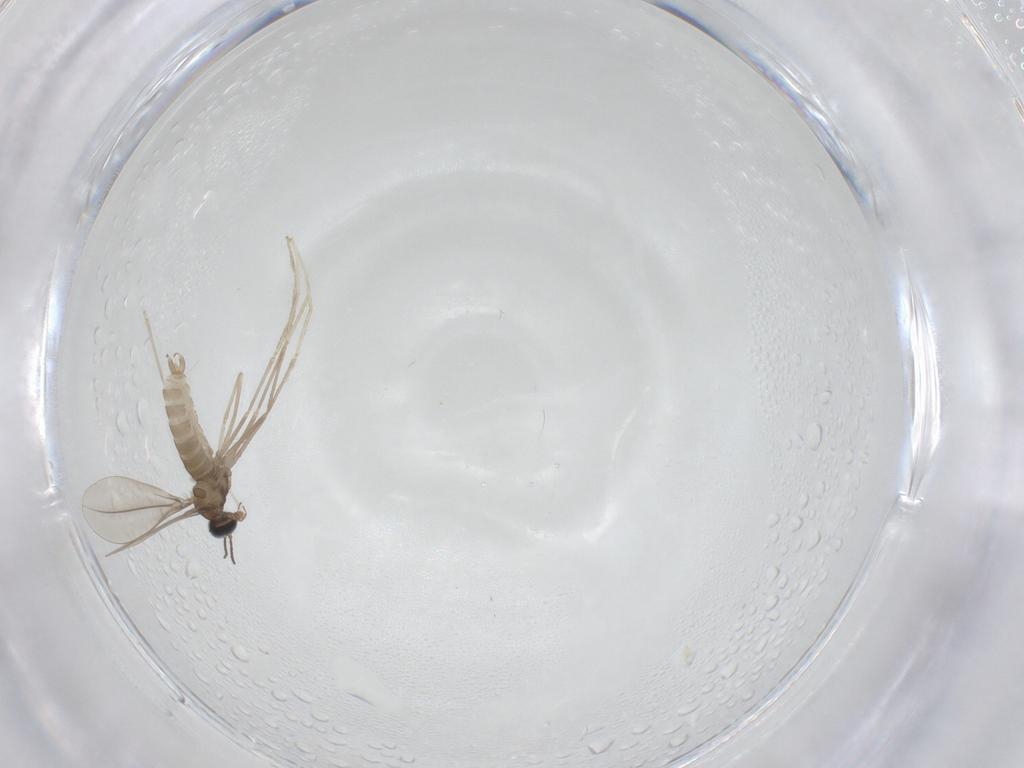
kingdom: Animalia
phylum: Arthropoda
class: Insecta
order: Diptera
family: Cecidomyiidae
